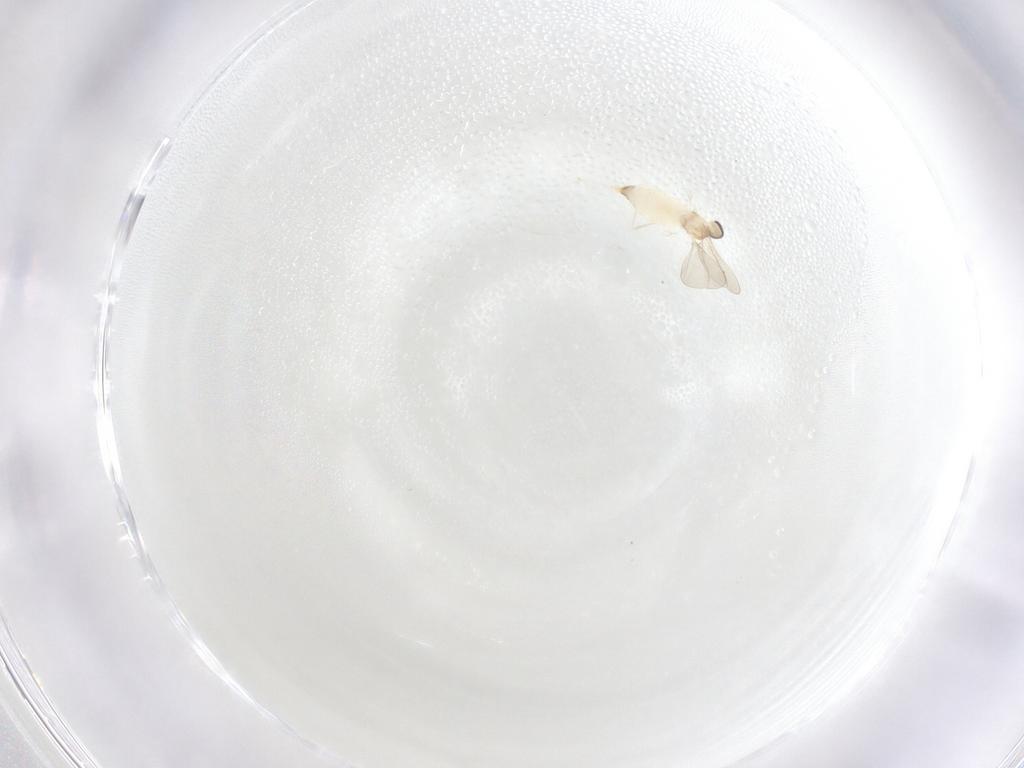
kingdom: Animalia
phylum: Arthropoda
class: Insecta
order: Diptera
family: Cecidomyiidae
